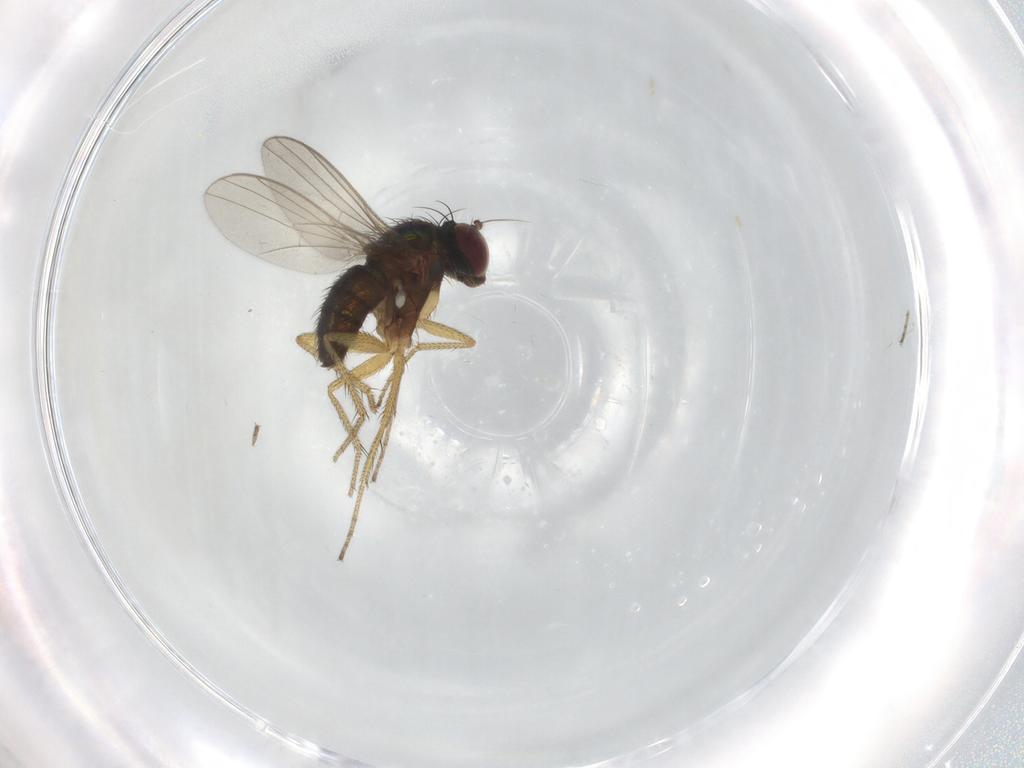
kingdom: Animalia
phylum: Arthropoda
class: Insecta
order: Diptera
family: Dolichopodidae
